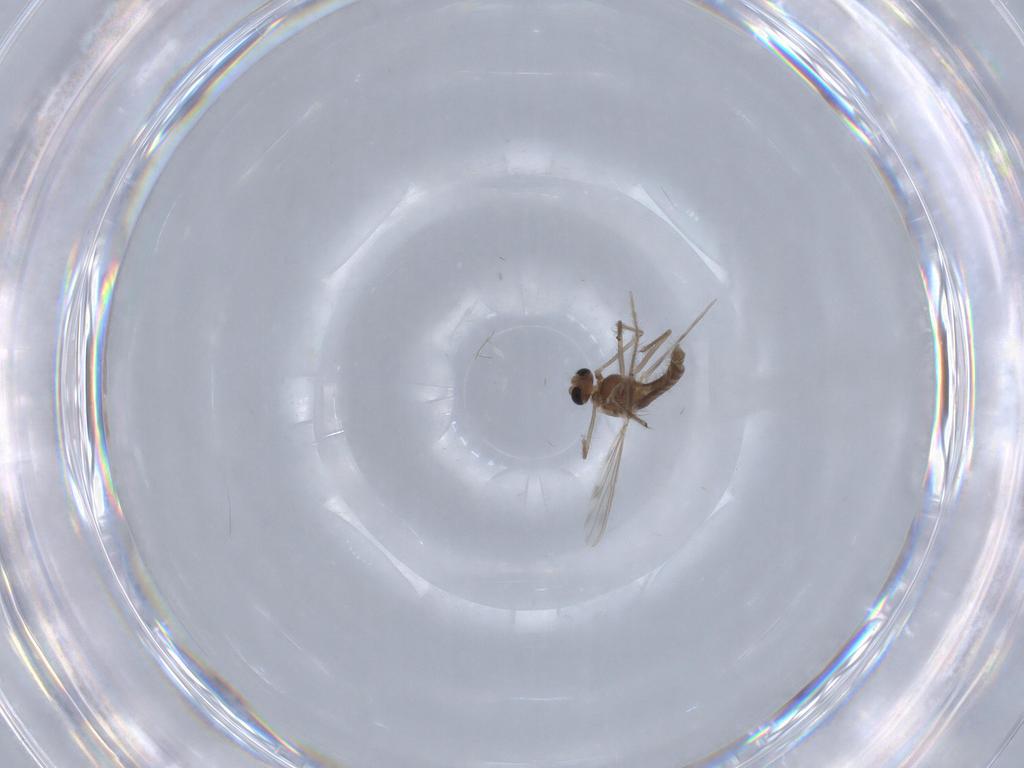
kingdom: Animalia
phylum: Arthropoda
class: Insecta
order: Diptera
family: Chironomidae
